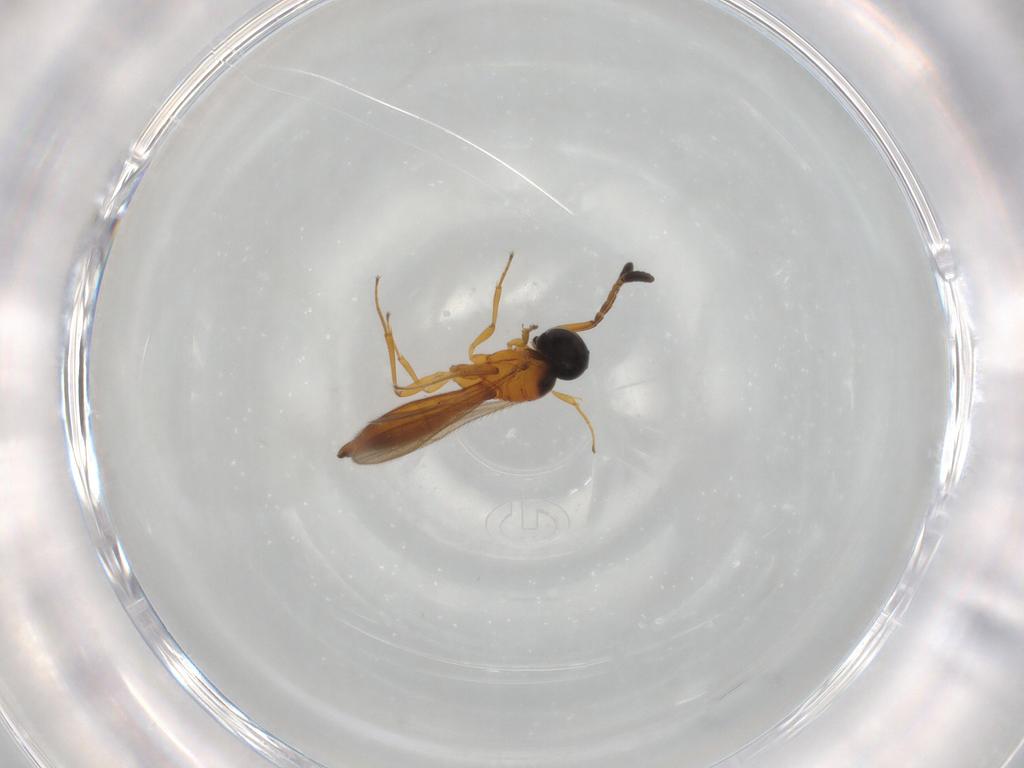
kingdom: Animalia
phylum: Arthropoda
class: Insecta
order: Hymenoptera
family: Scelionidae
